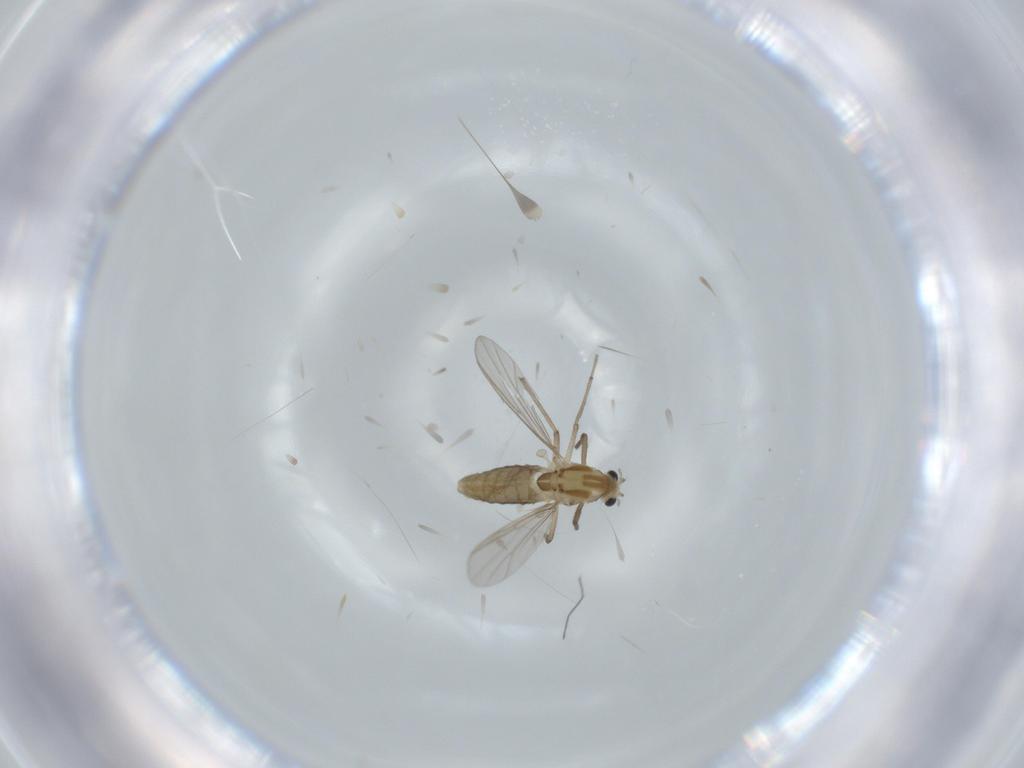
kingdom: Animalia
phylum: Arthropoda
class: Insecta
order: Diptera
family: Chironomidae
